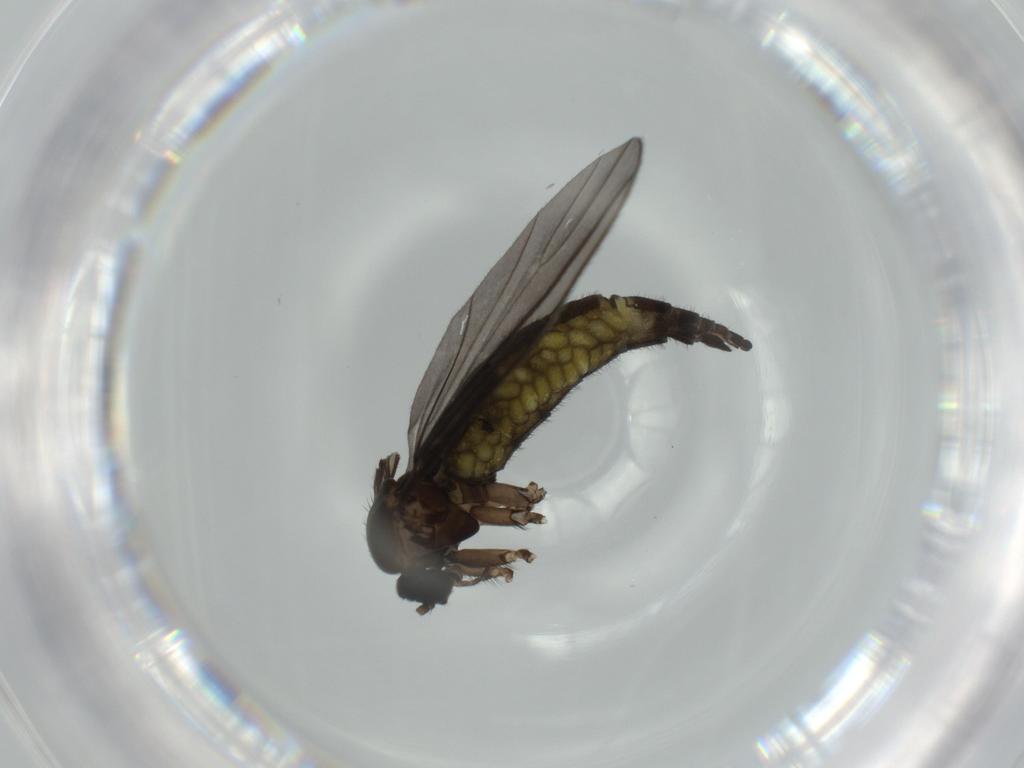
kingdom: Animalia
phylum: Arthropoda
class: Insecta
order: Diptera
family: Sciaridae
